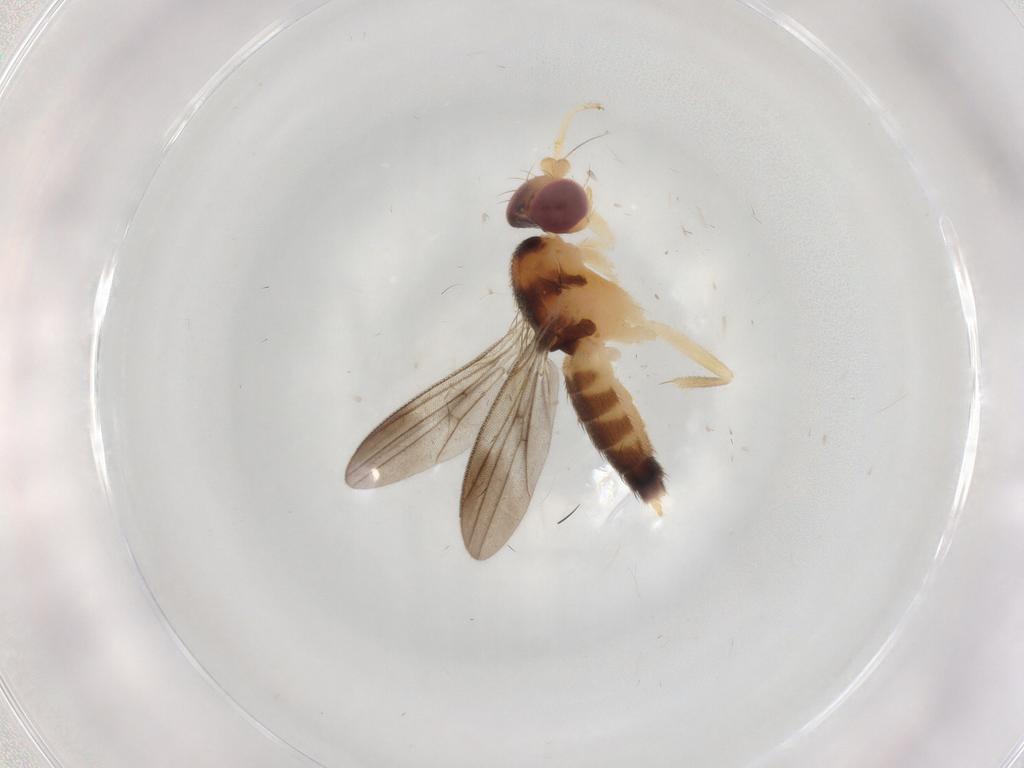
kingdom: Animalia
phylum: Arthropoda
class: Insecta
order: Diptera
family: Clusiidae
